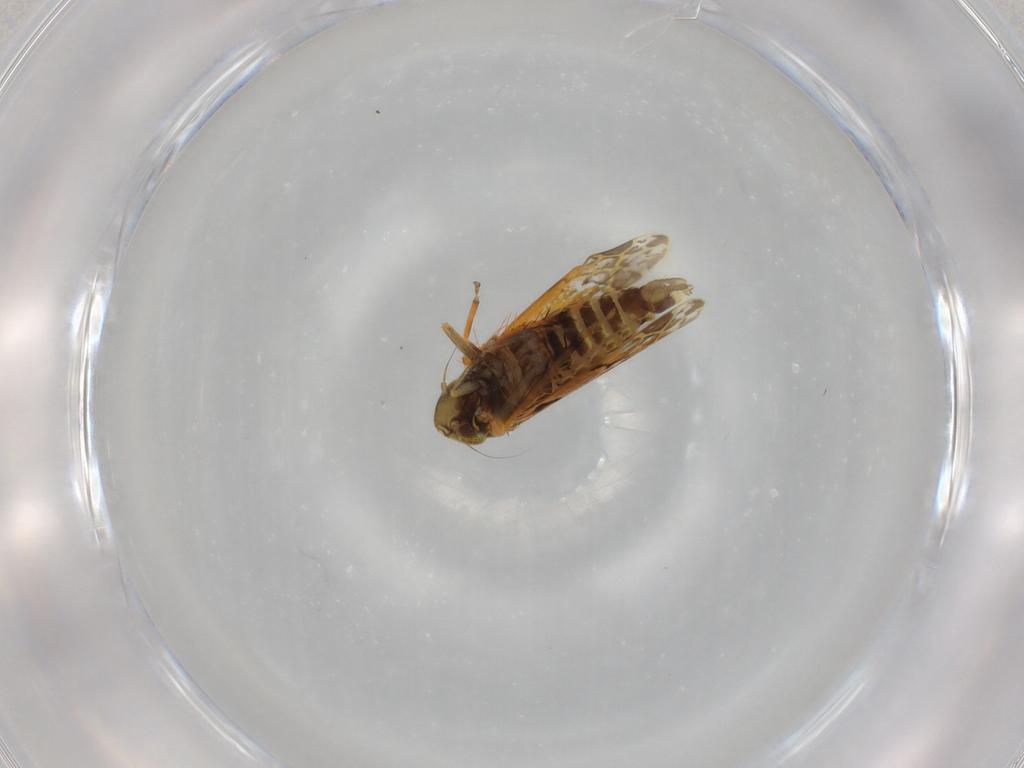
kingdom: Animalia
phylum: Arthropoda
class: Insecta
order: Hemiptera
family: Cicadellidae
